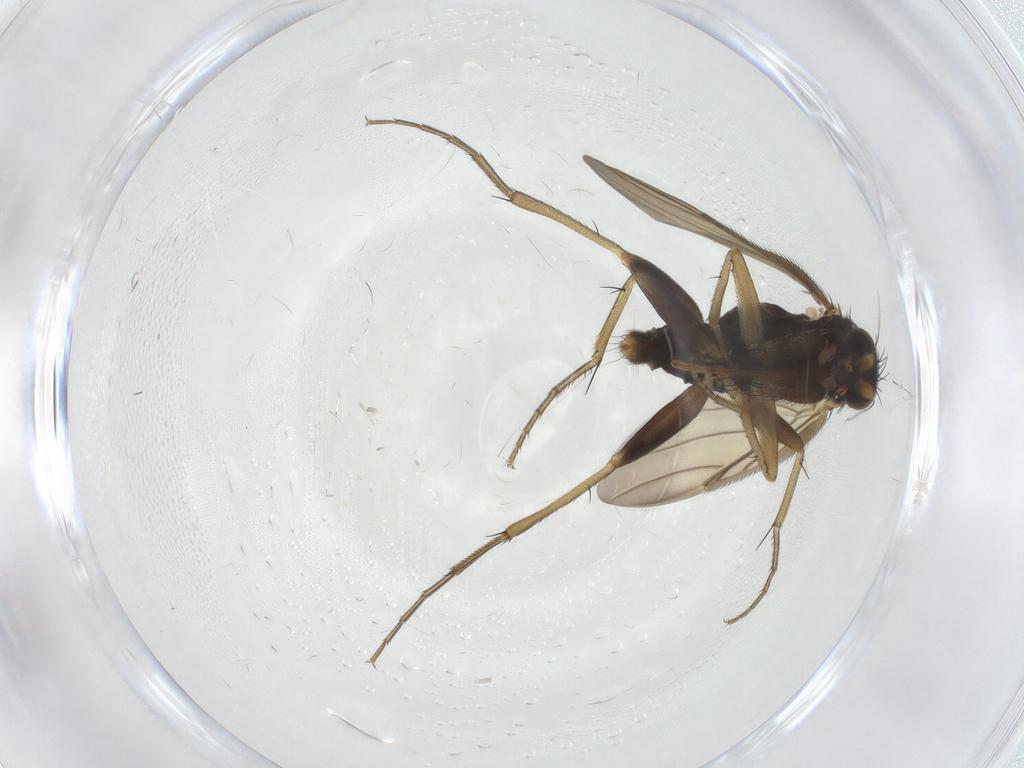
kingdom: Animalia
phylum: Arthropoda
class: Insecta
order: Diptera
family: Phoridae
